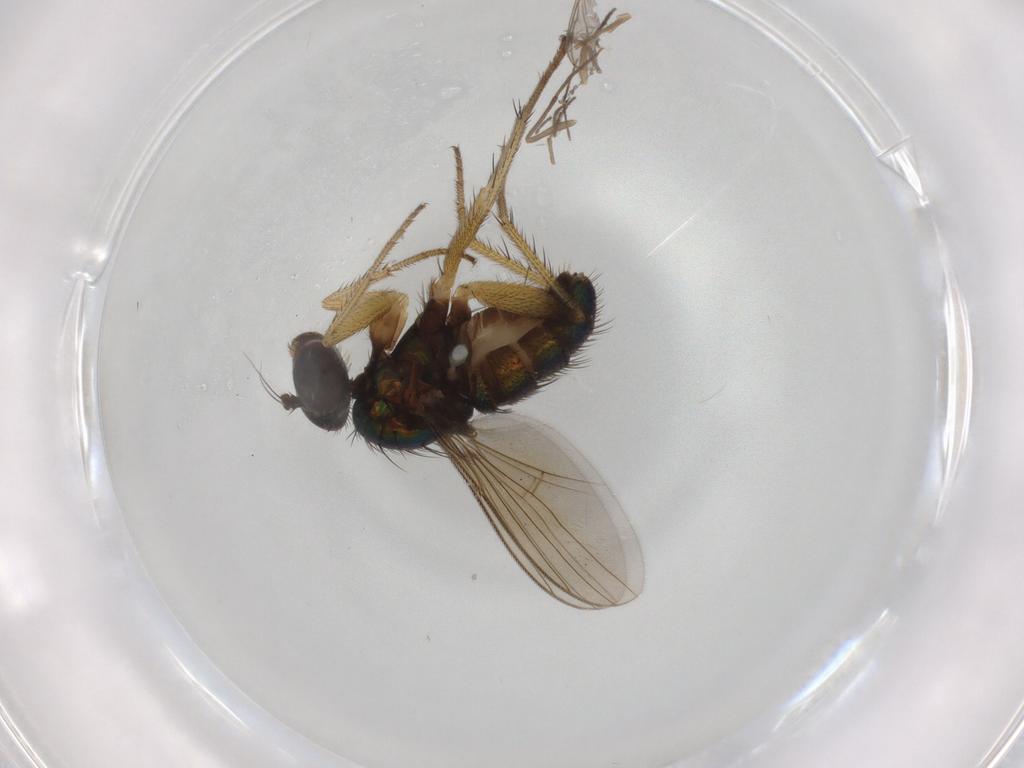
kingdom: Animalia
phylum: Arthropoda
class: Insecta
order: Diptera
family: Dolichopodidae
